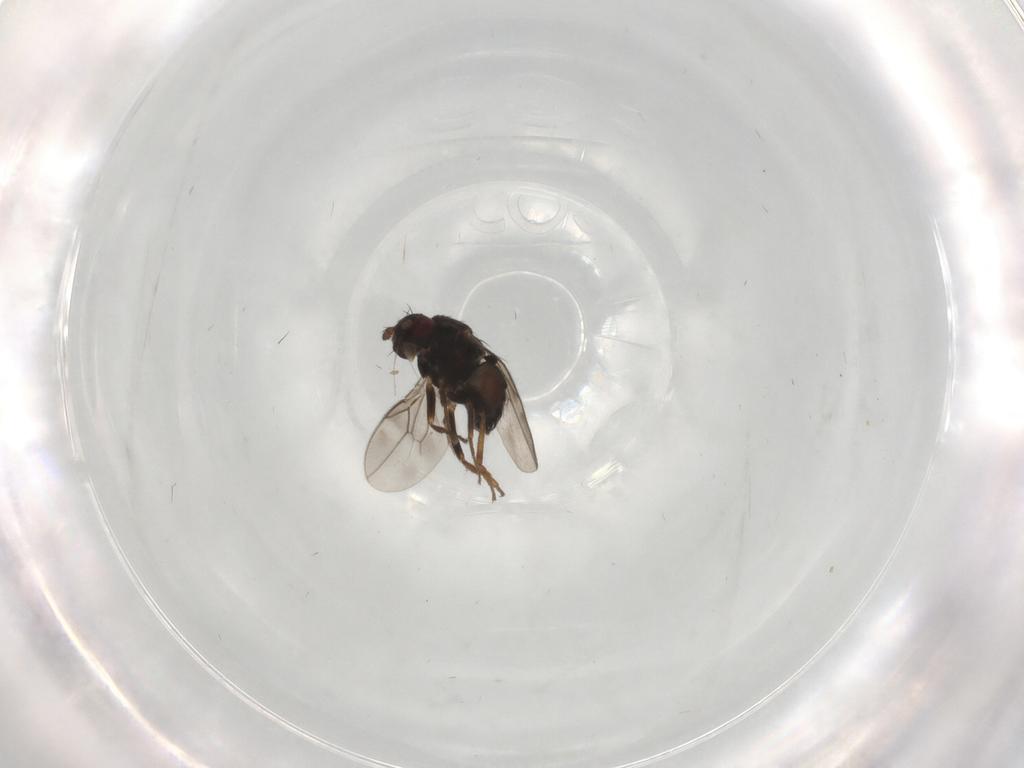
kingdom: Animalia
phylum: Arthropoda
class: Insecta
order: Diptera
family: Sphaeroceridae
